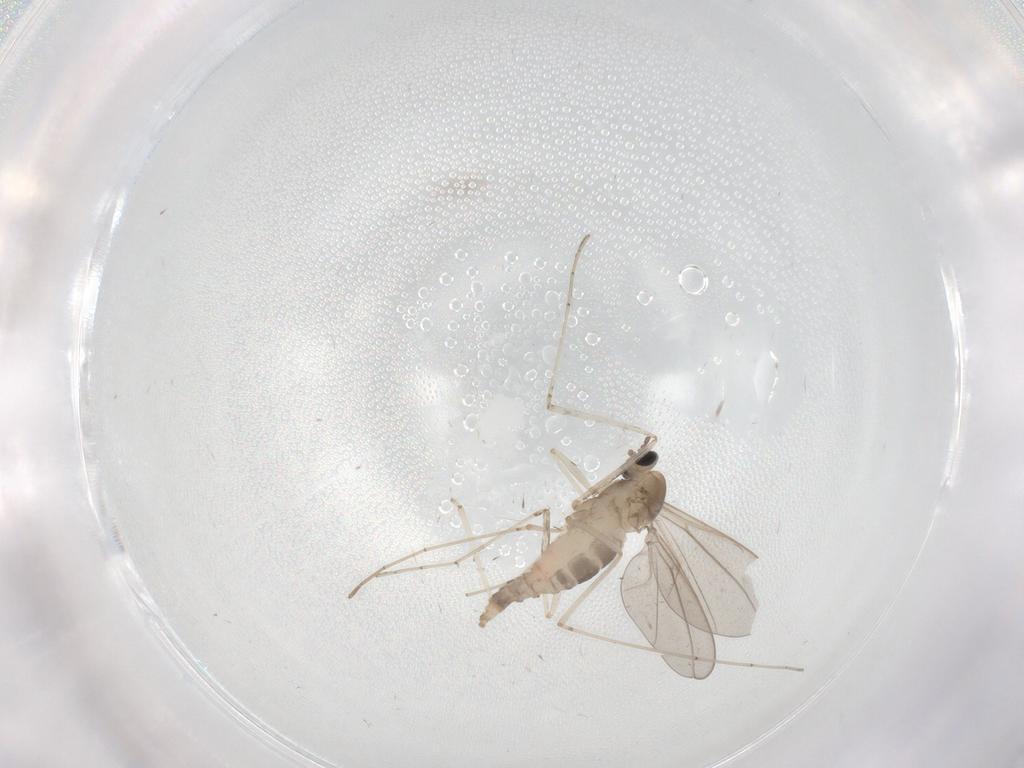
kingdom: Animalia
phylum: Arthropoda
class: Insecta
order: Diptera
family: Cecidomyiidae
